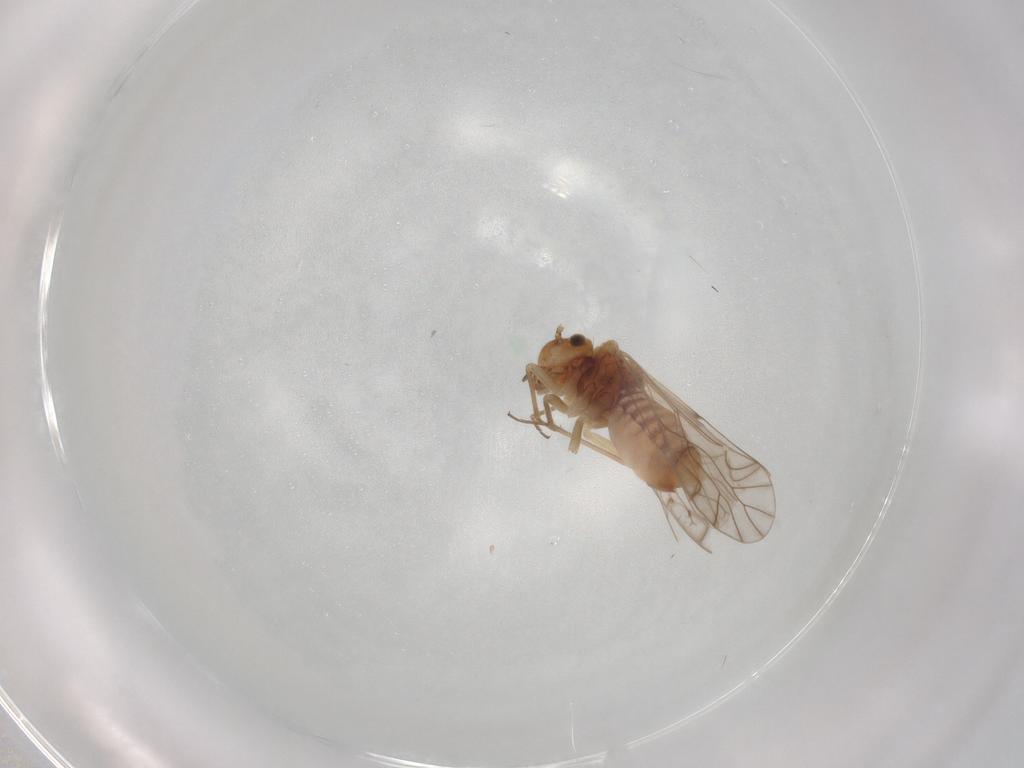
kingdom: Animalia
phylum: Arthropoda
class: Insecta
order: Psocodea
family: Lachesillidae
